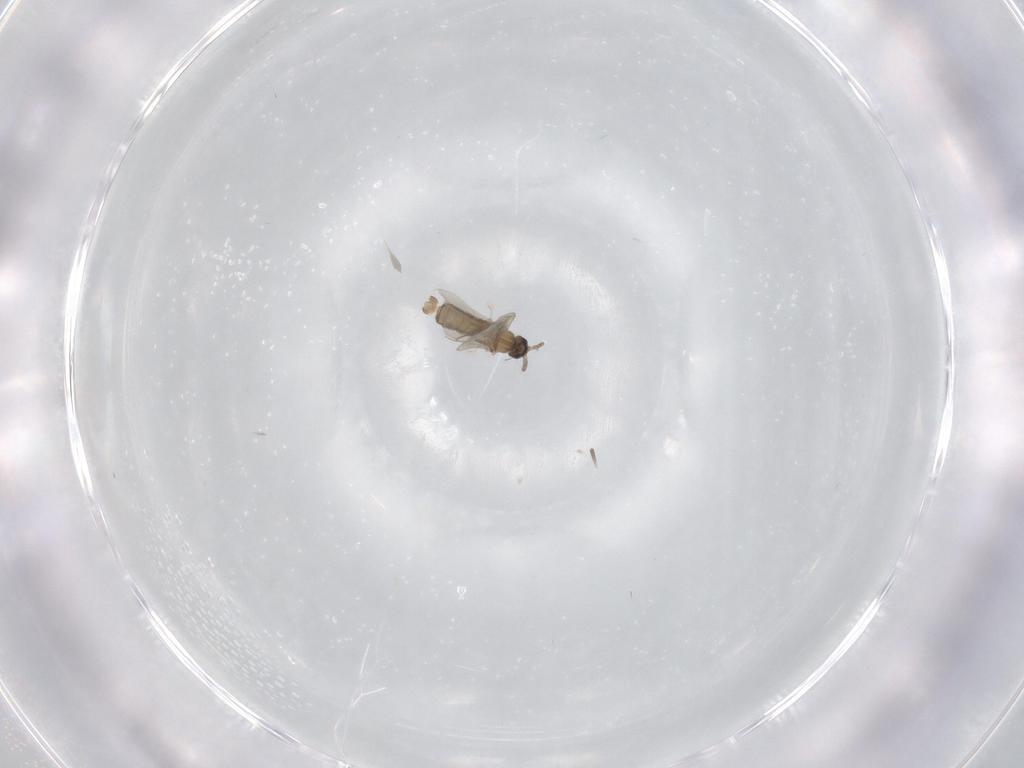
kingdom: Animalia
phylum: Arthropoda
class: Insecta
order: Diptera
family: Cecidomyiidae
